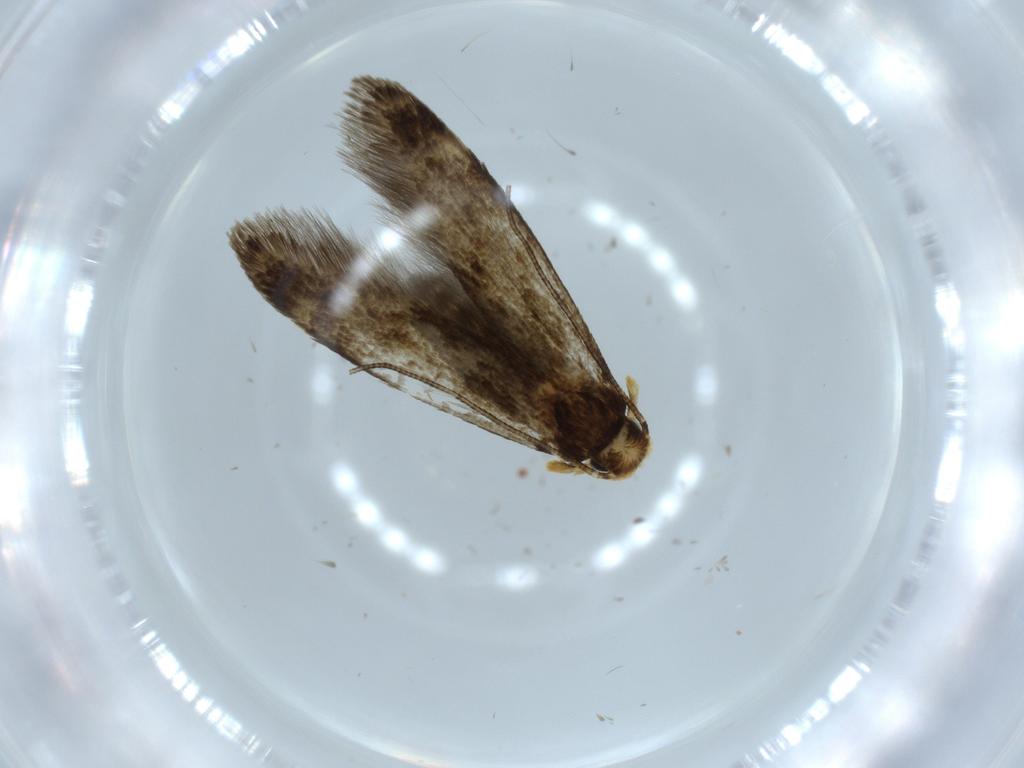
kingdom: Animalia
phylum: Arthropoda
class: Insecta
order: Lepidoptera
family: Tineidae
